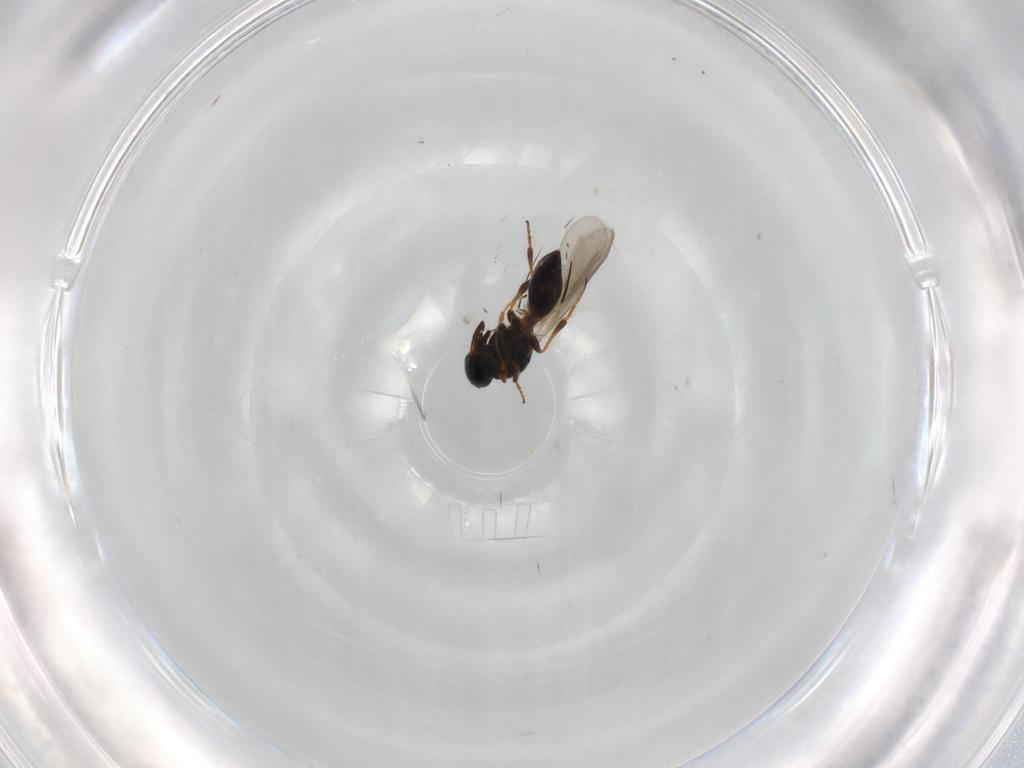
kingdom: Animalia
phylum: Arthropoda
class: Insecta
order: Hymenoptera
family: Platygastridae
